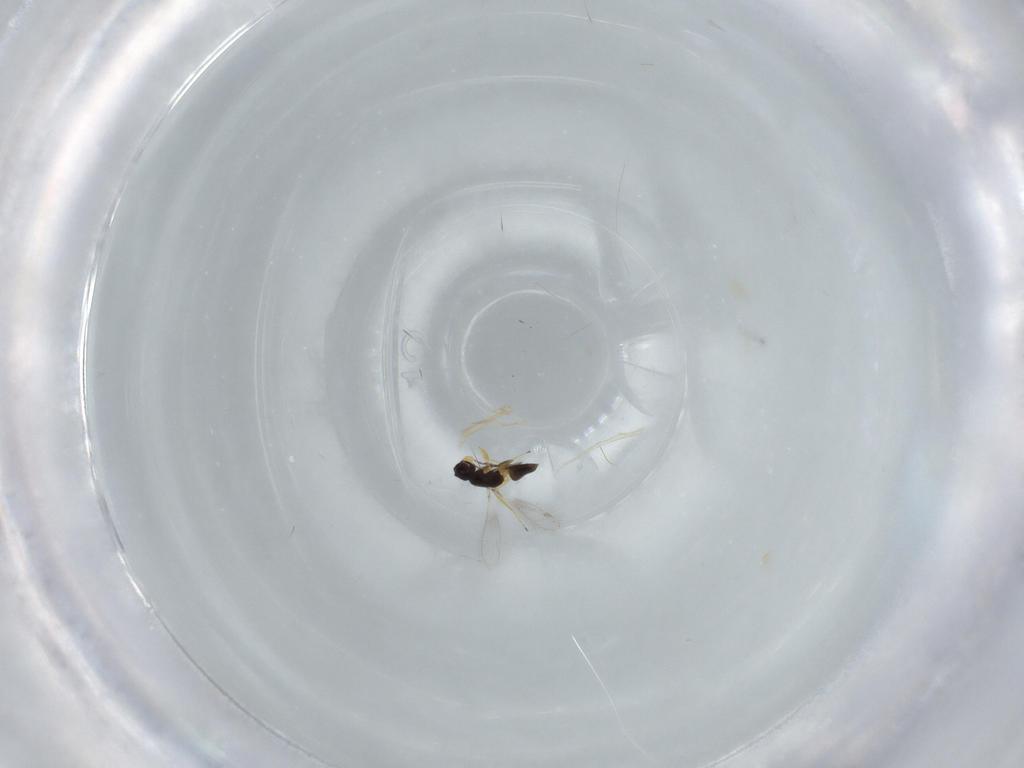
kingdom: Animalia
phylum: Arthropoda
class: Insecta
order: Hymenoptera
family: Mymaridae
